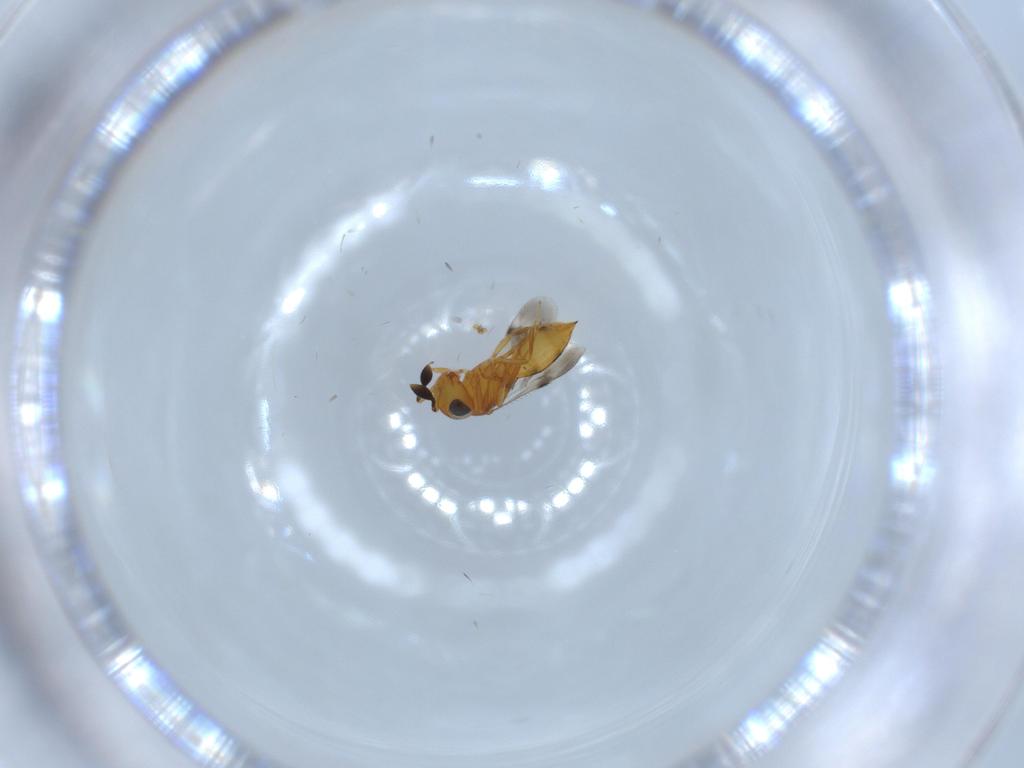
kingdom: Animalia
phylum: Arthropoda
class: Insecta
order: Hymenoptera
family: Scelionidae
